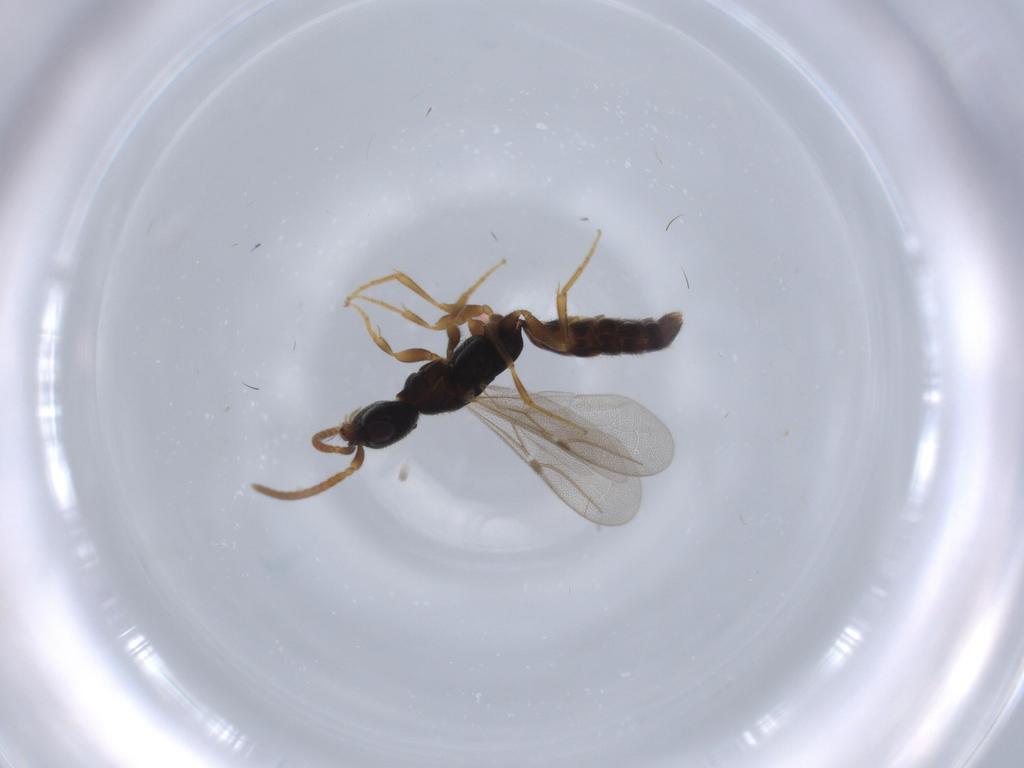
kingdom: Animalia
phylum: Arthropoda
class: Insecta
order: Hymenoptera
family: Bethylidae
